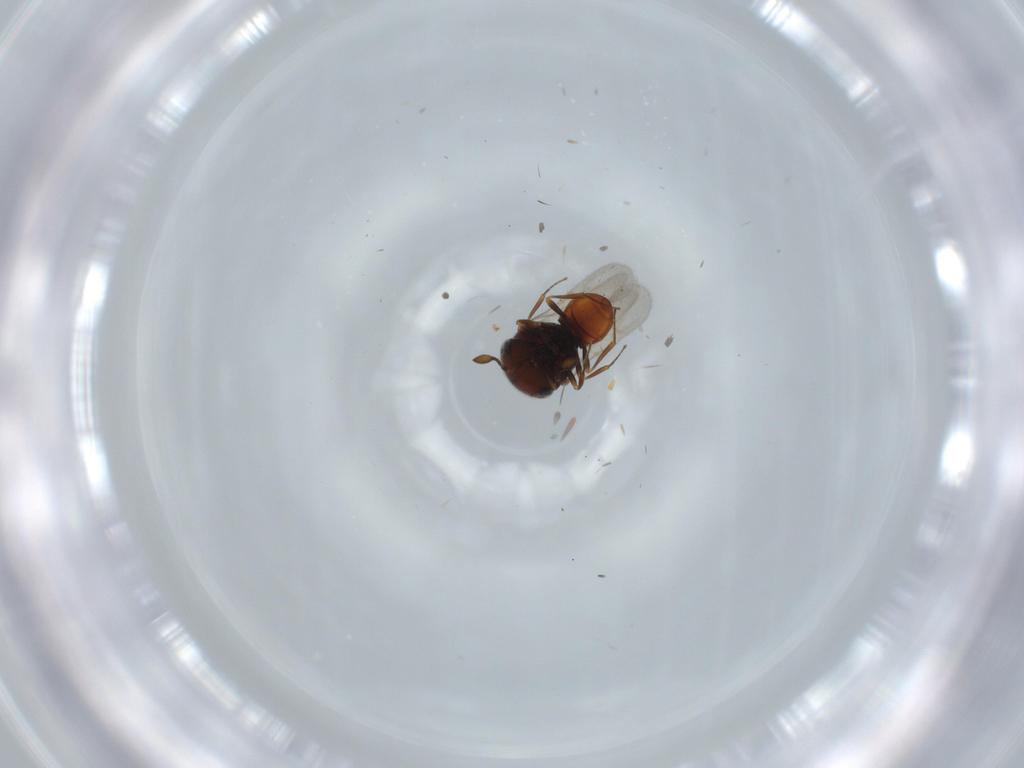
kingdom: Animalia
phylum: Arthropoda
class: Insecta
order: Hymenoptera
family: Scelionidae
